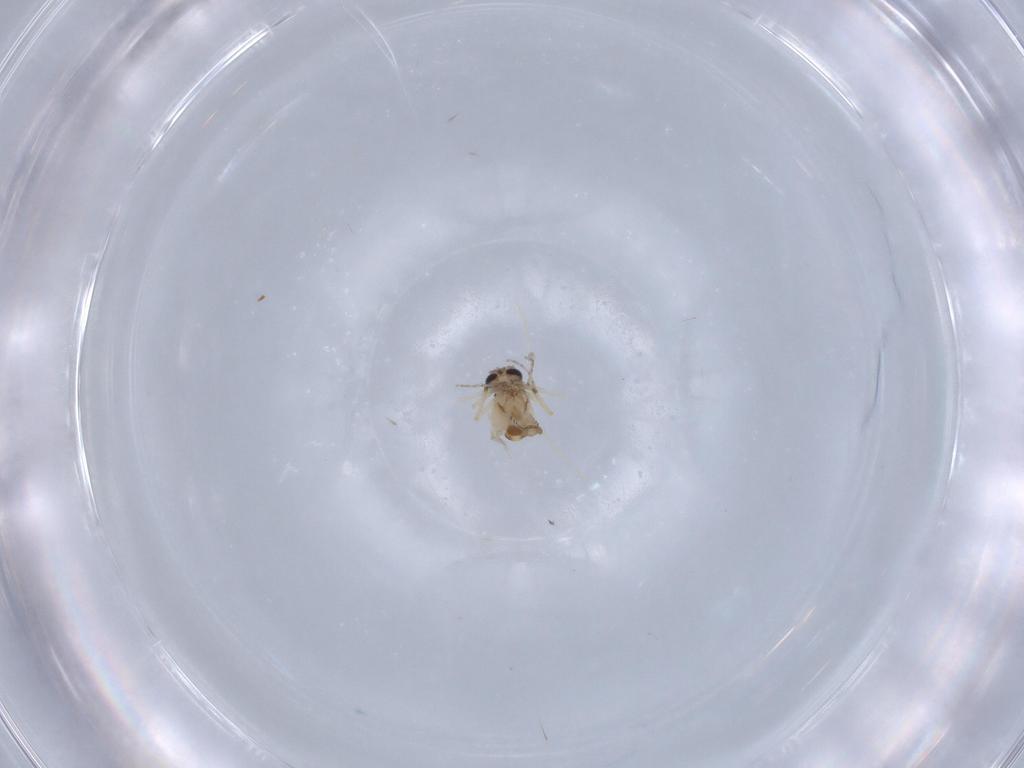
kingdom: Animalia
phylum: Arthropoda
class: Insecta
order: Diptera
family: Ceratopogonidae
